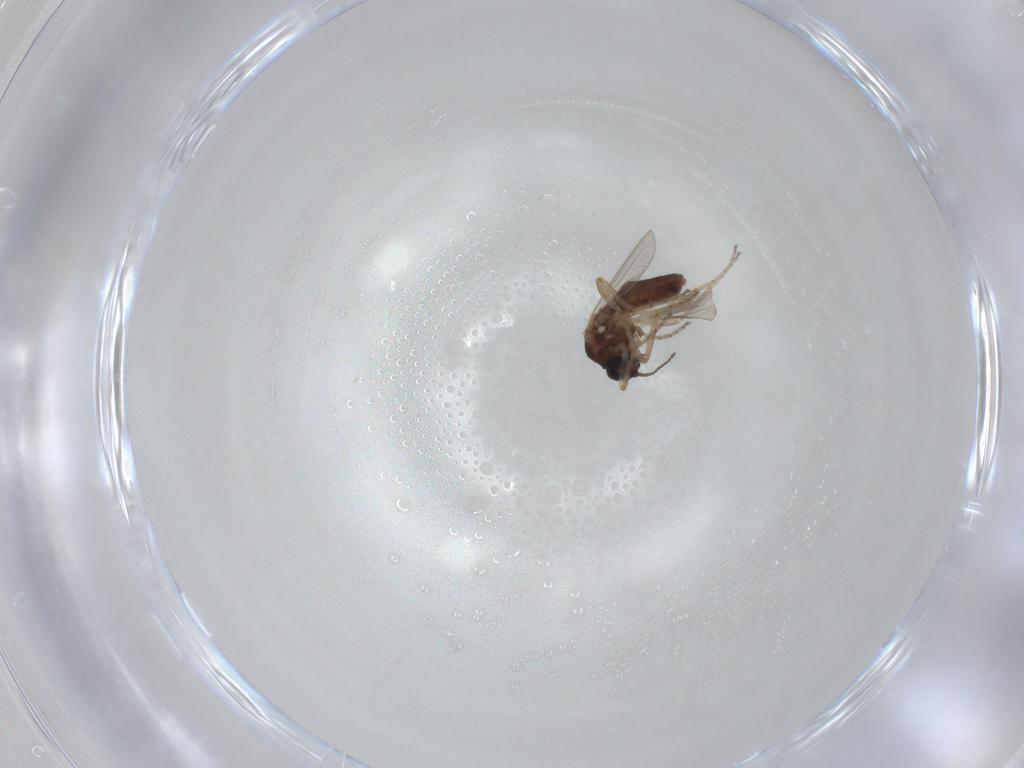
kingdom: Animalia
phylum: Arthropoda
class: Insecta
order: Diptera
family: Ceratopogonidae
